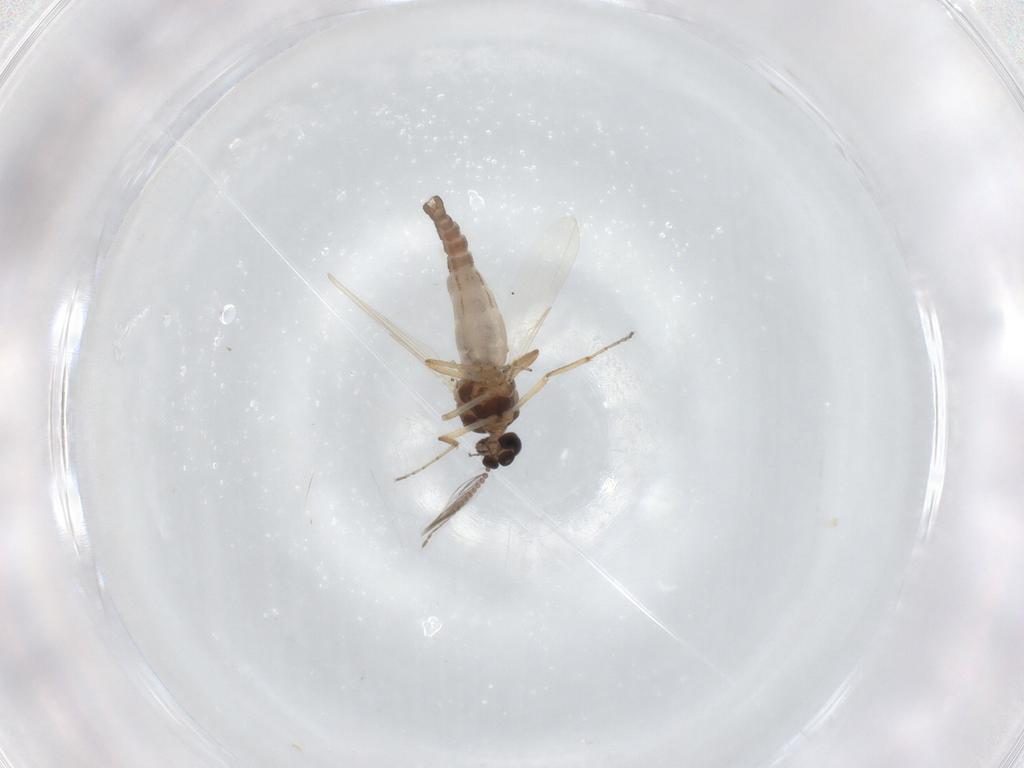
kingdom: Animalia
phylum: Arthropoda
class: Insecta
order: Diptera
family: Ceratopogonidae
